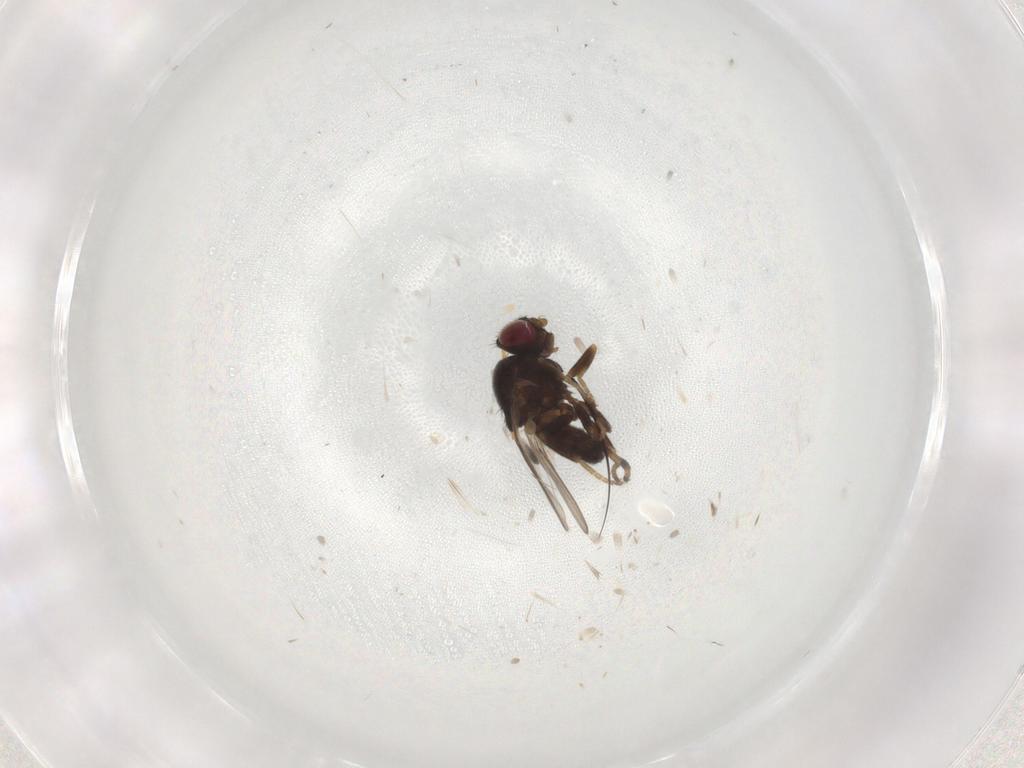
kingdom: Animalia
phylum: Arthropoda
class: Insecta
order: Diptera
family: Chloropidae
